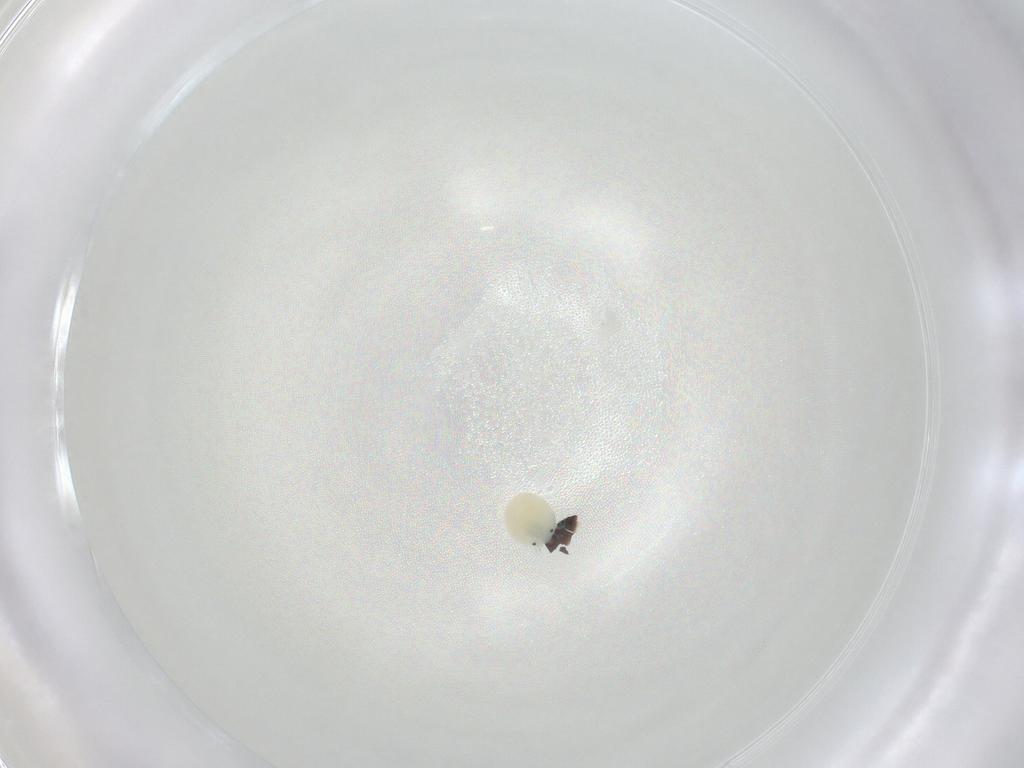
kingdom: Animalia
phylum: Arthropoda
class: Arachnida
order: Trombidiformes
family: Arrenuridae
